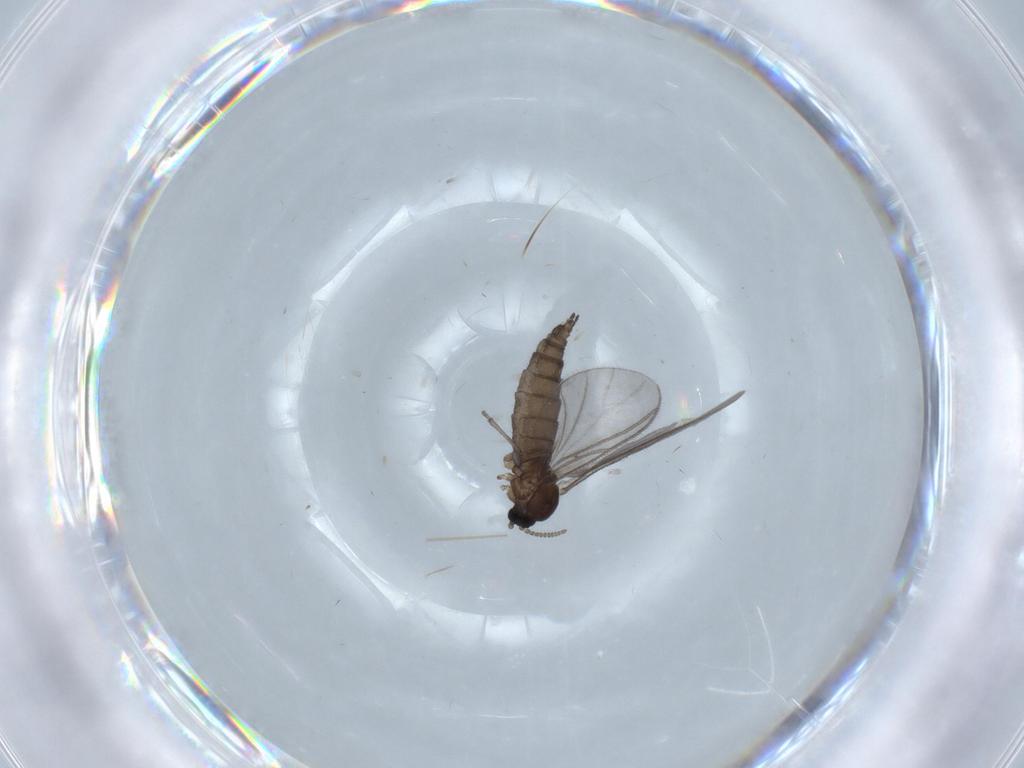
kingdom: Animalia
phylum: Arthropoda
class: Insecta
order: Diptera
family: Sciaridae
